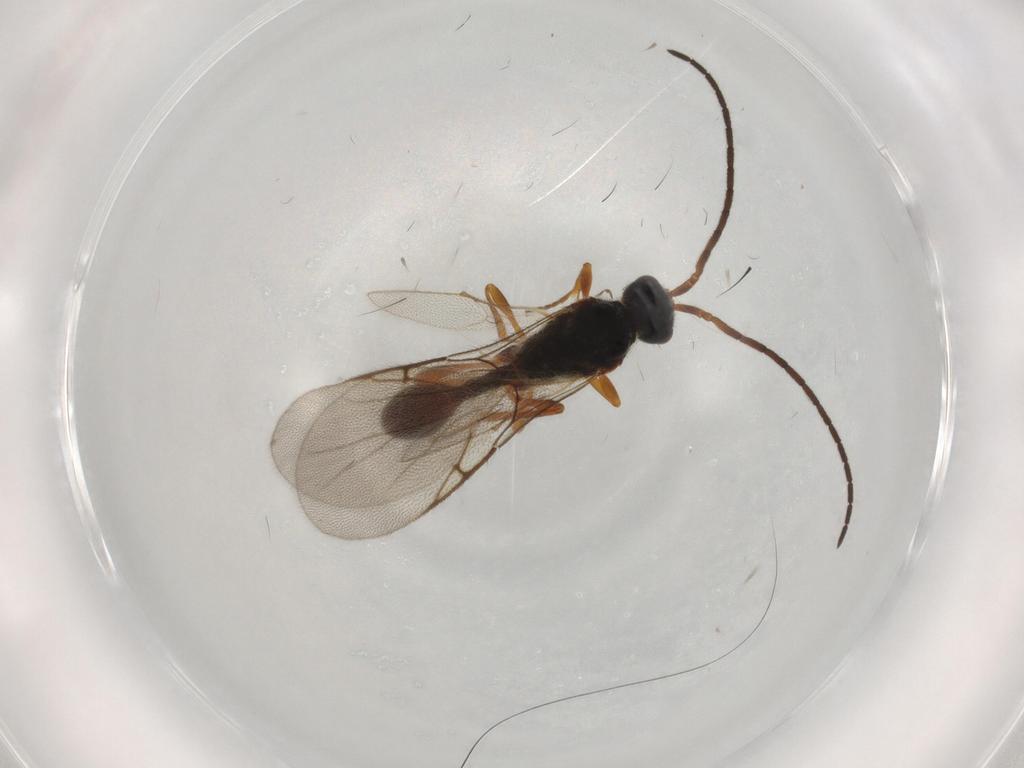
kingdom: Animalia
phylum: Arthropoda
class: Insecta
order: Hymenoptera
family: Diapriidae
